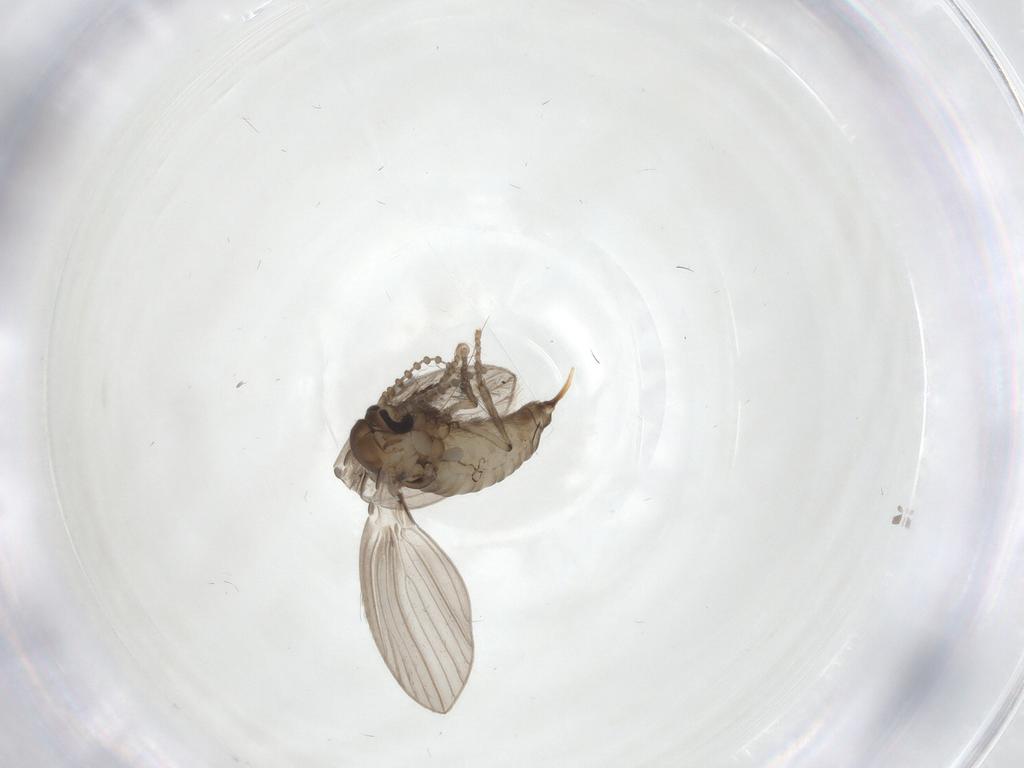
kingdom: Animalia
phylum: Arthropoda
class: Insecta
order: Diptera
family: Psychodidae
